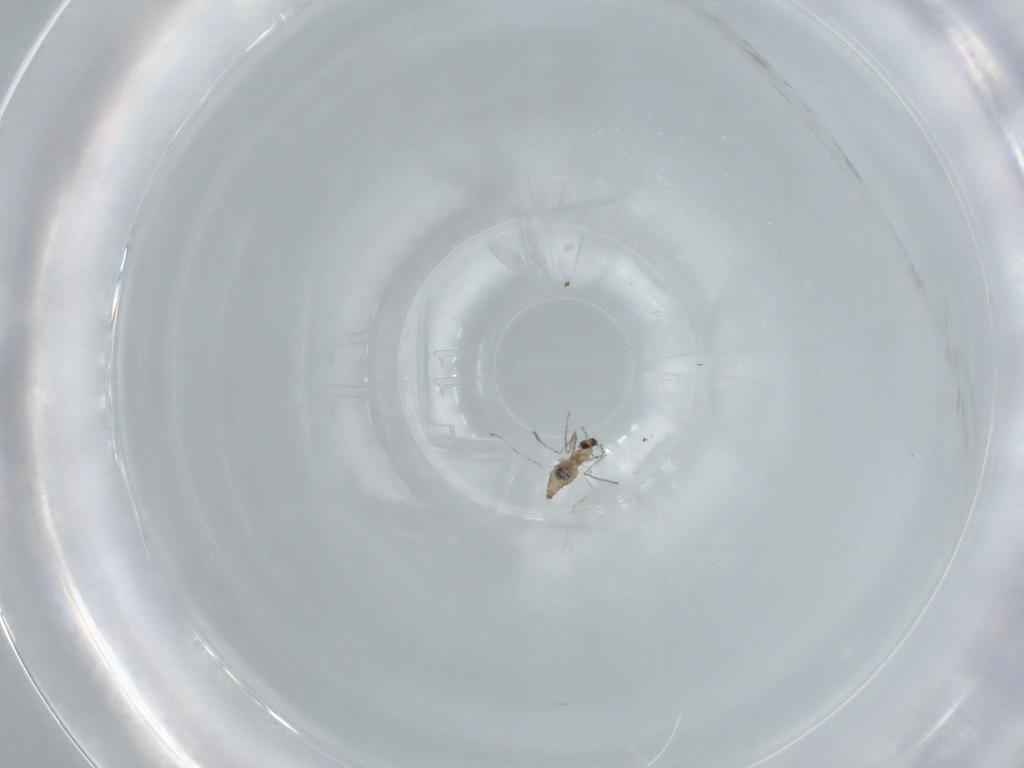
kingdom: Animalia
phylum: Arthropoda
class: Insecta
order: Diptera
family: Cecidomyiidae
